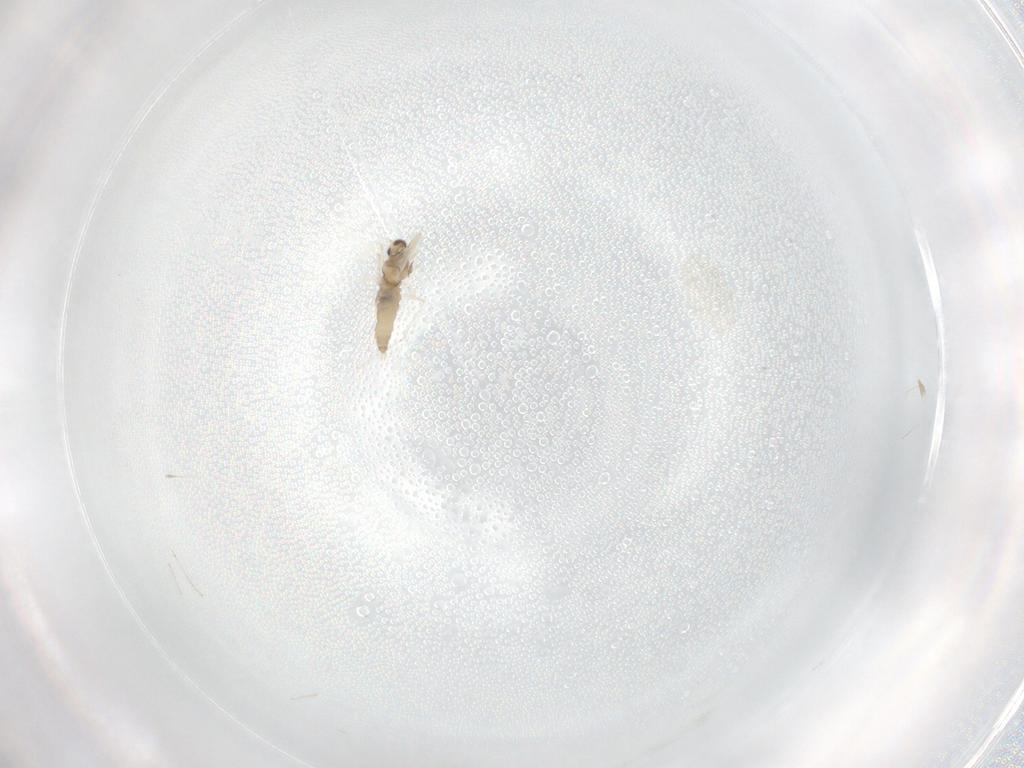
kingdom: Animalia
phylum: Arthropoda
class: Insecta
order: Diptera
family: Cecidomyiidae
